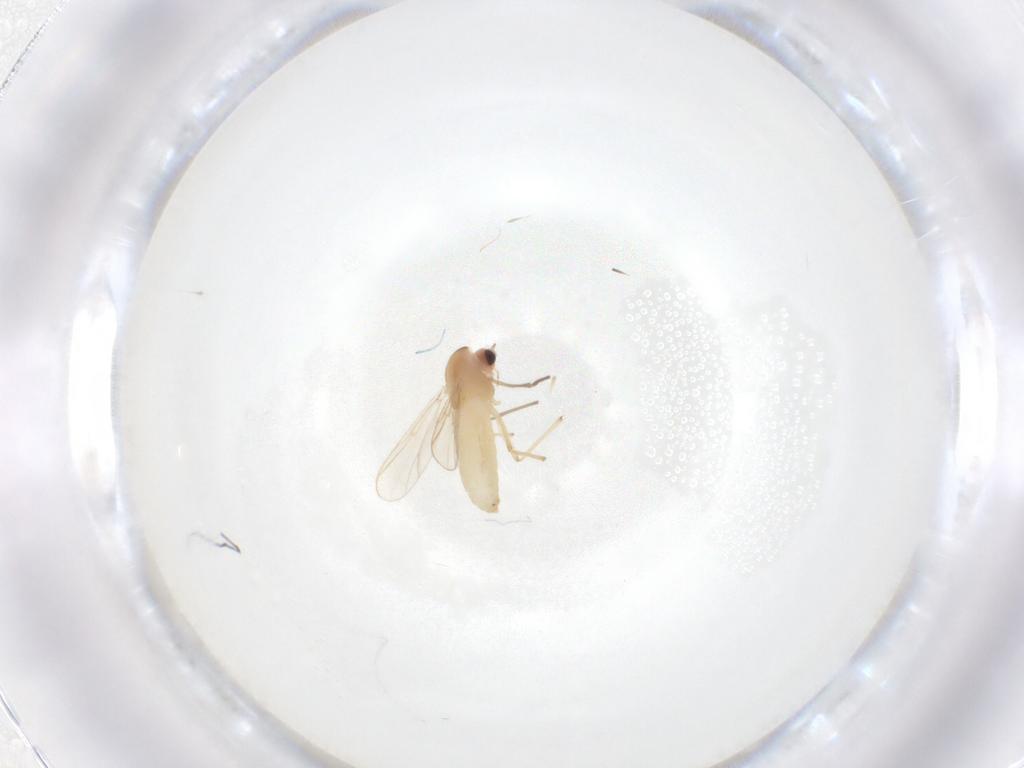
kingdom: Animalia
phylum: Arthropoda
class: Insecta
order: Diptera
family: Chironomidae
